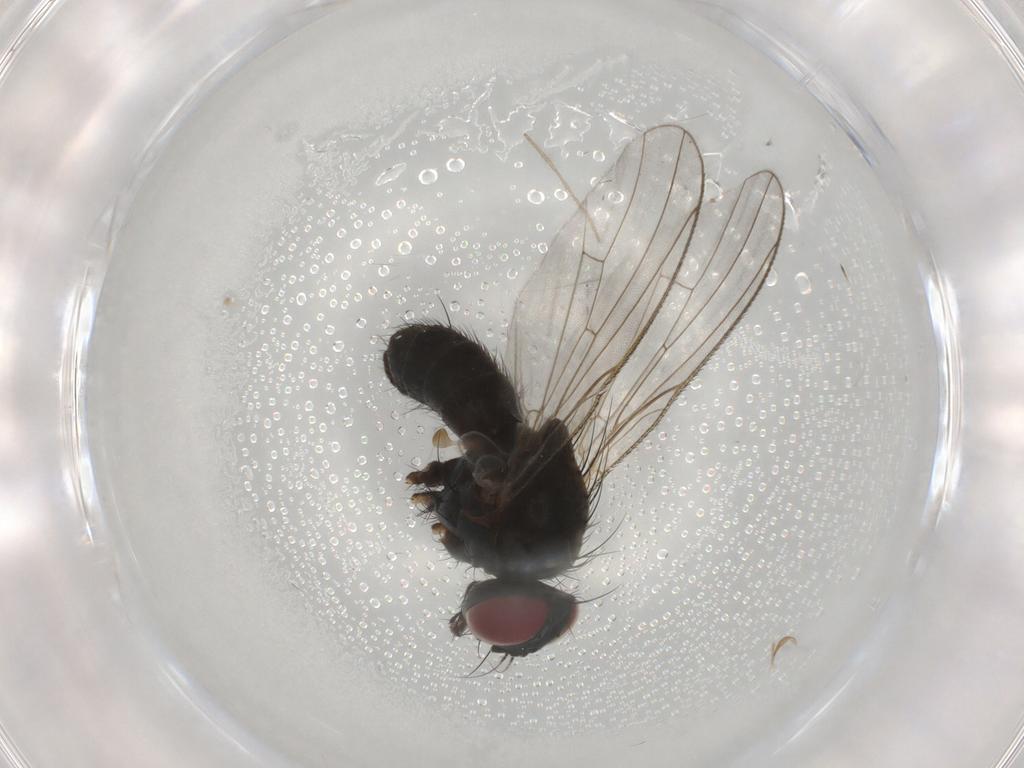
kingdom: Animalia
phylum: Arthropoda
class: Insecta
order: Diptera
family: Muscidae
